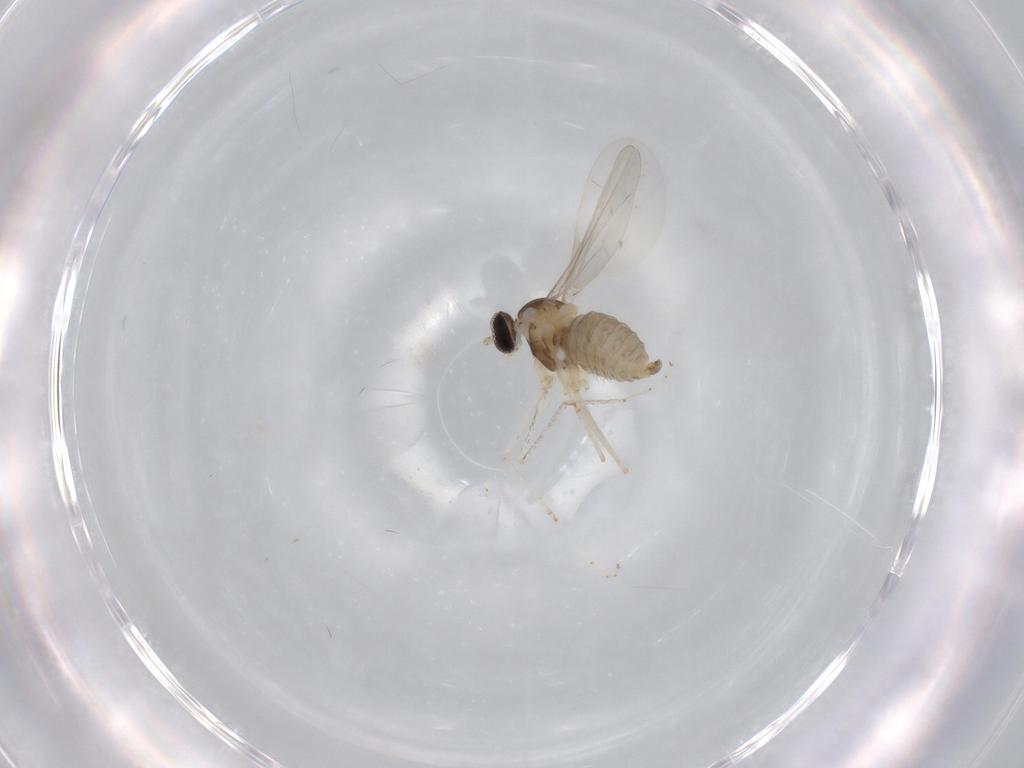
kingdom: Animalia
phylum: Arthropoda
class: Insecta
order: Diptera
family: Cecidomyiidae
